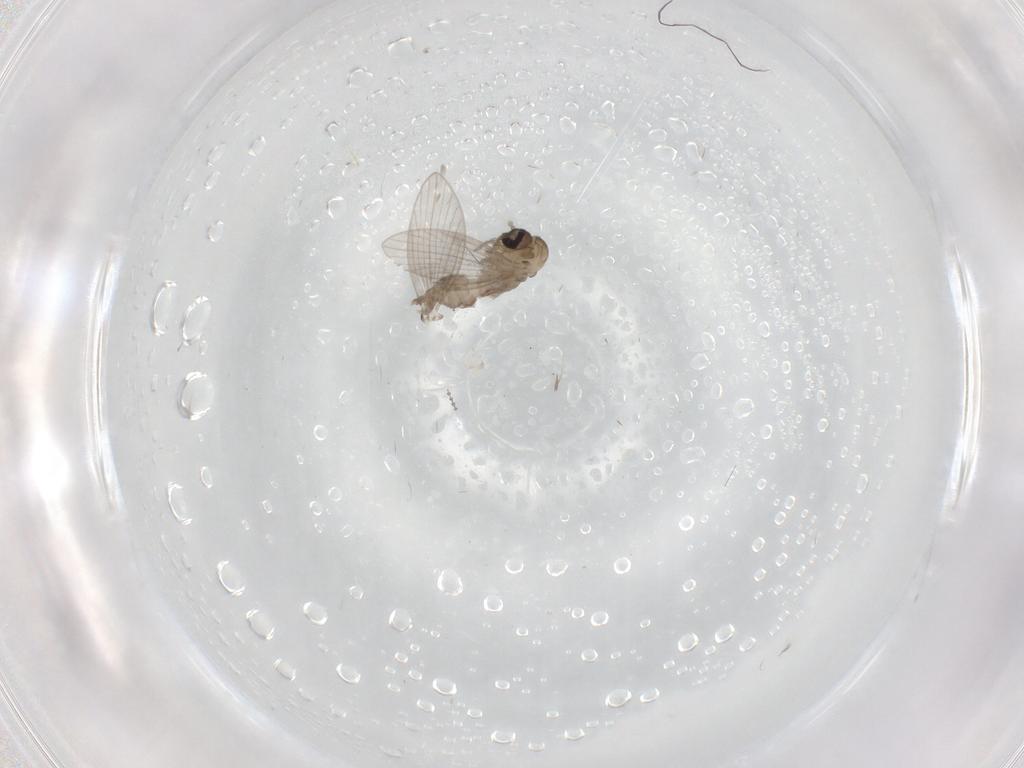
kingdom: Animalia
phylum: Arthropoda
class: Insecta
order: Diptera
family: Psychodidae
